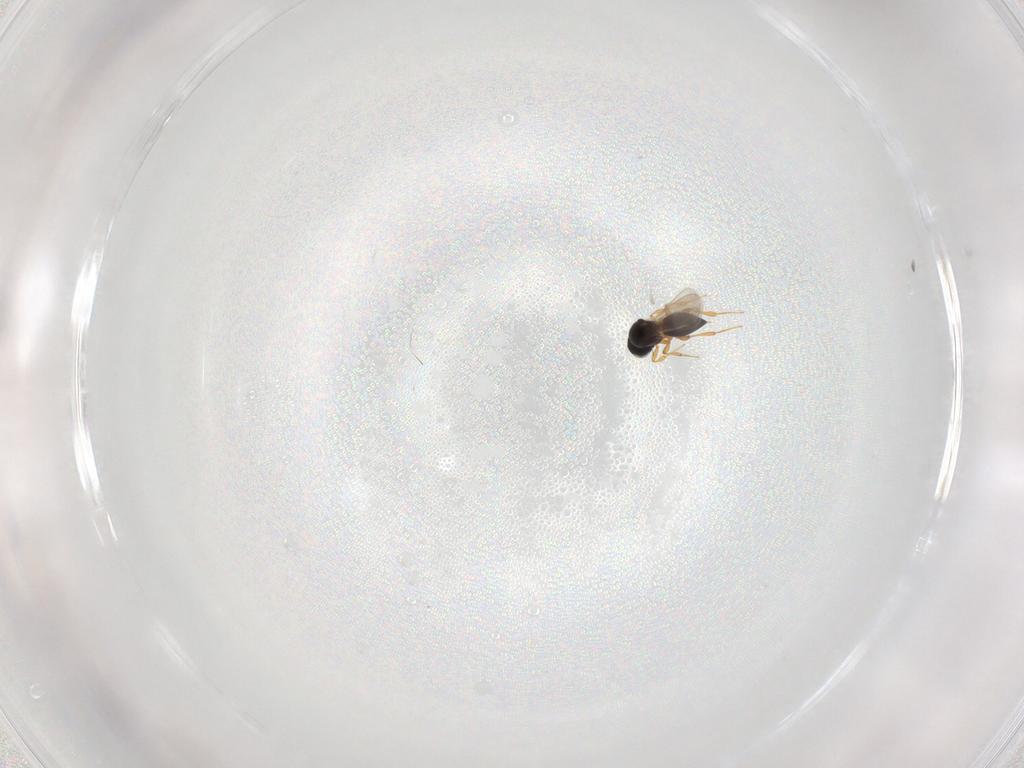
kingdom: Animalia
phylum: Arthropoda
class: Insecta
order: Hymenoptera
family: Platygastridae
